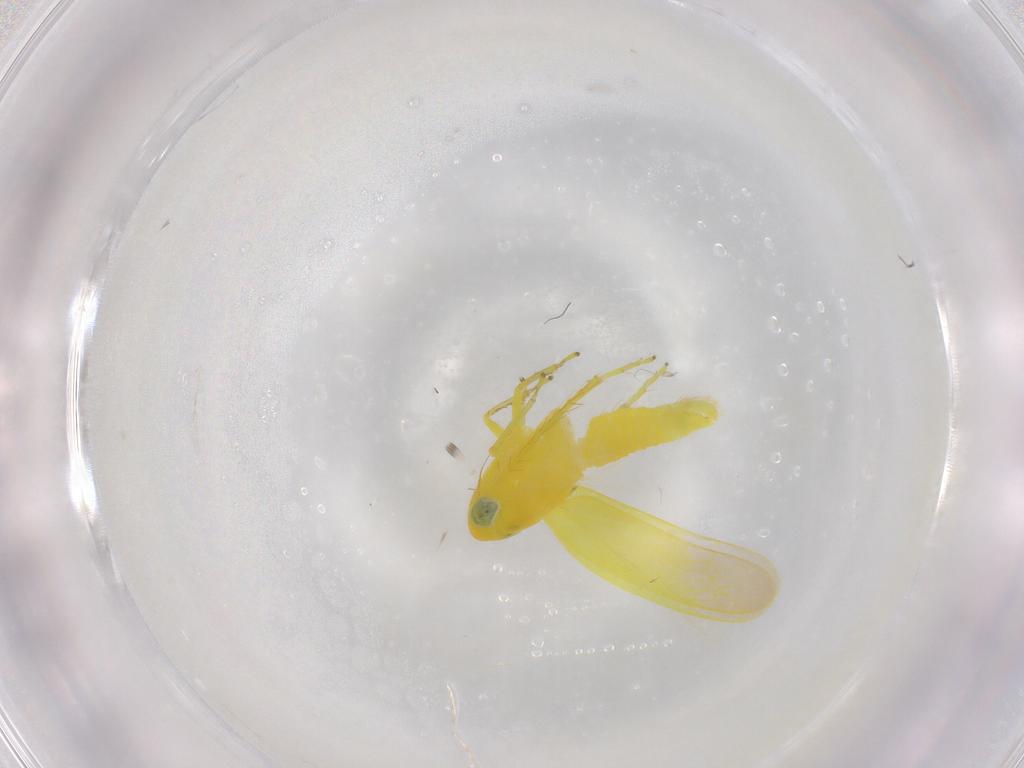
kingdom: Animalia
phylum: Arthropoda
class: Insecta
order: Hemiptera
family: Cicadellidae
